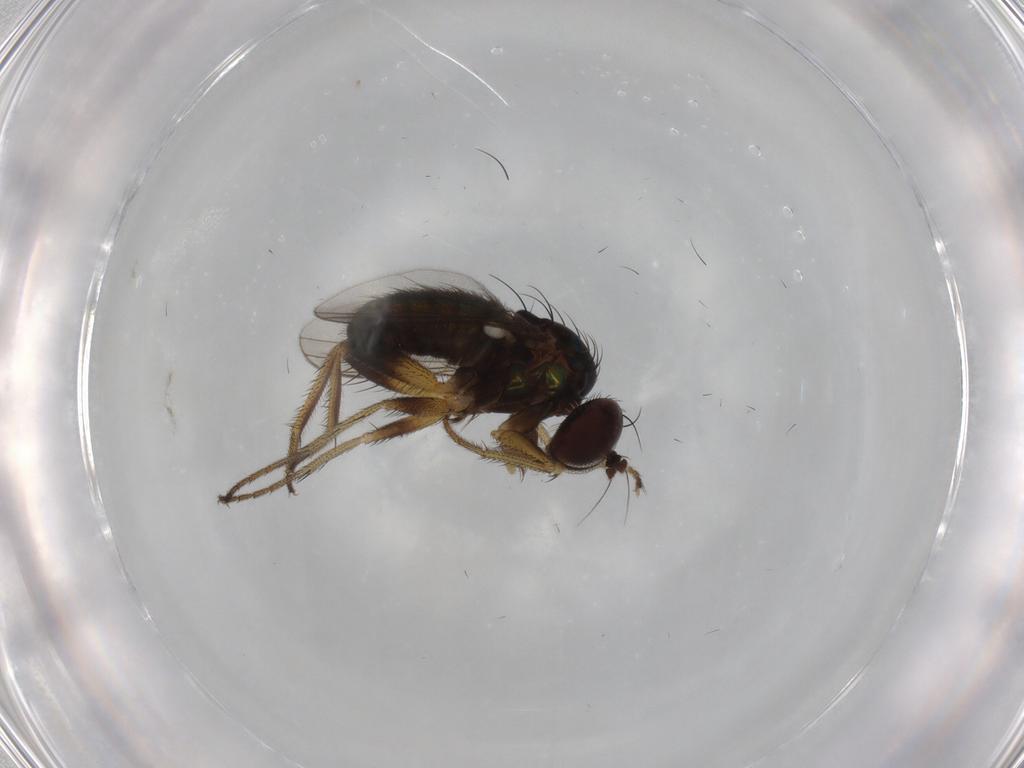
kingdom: Animalia
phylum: Arthropoda
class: Insecta
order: Diptera
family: Dolichopodidae
